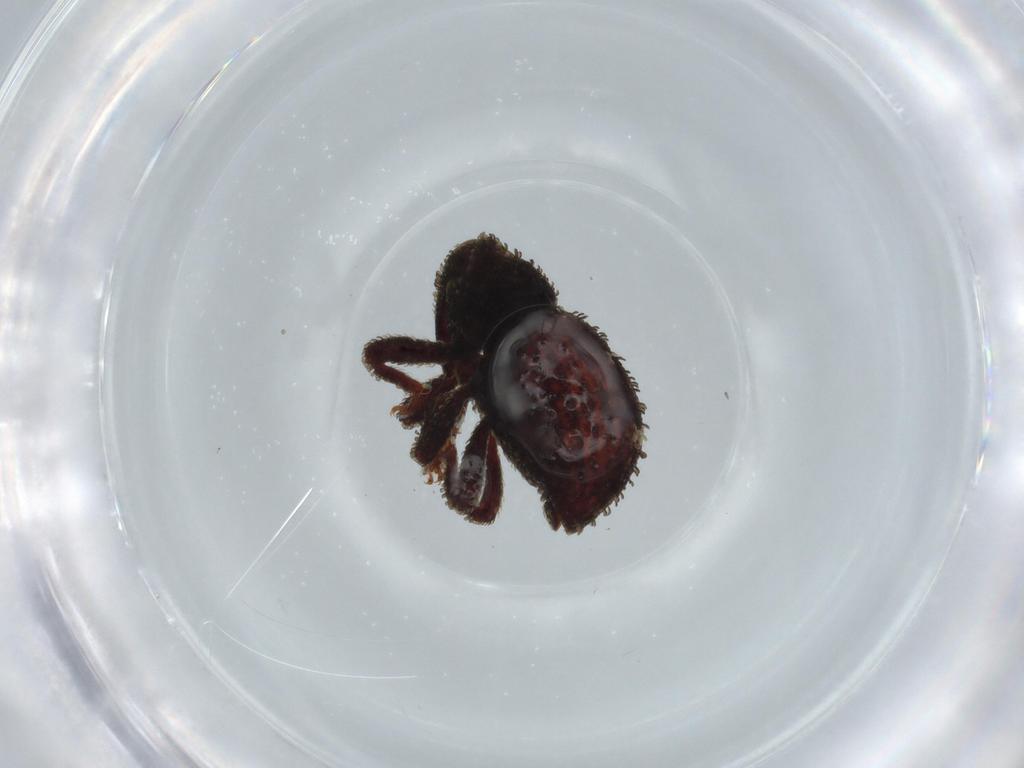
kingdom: Animalia
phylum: Arthropoda
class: Insecta
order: Coleoptera
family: Curculionidae
